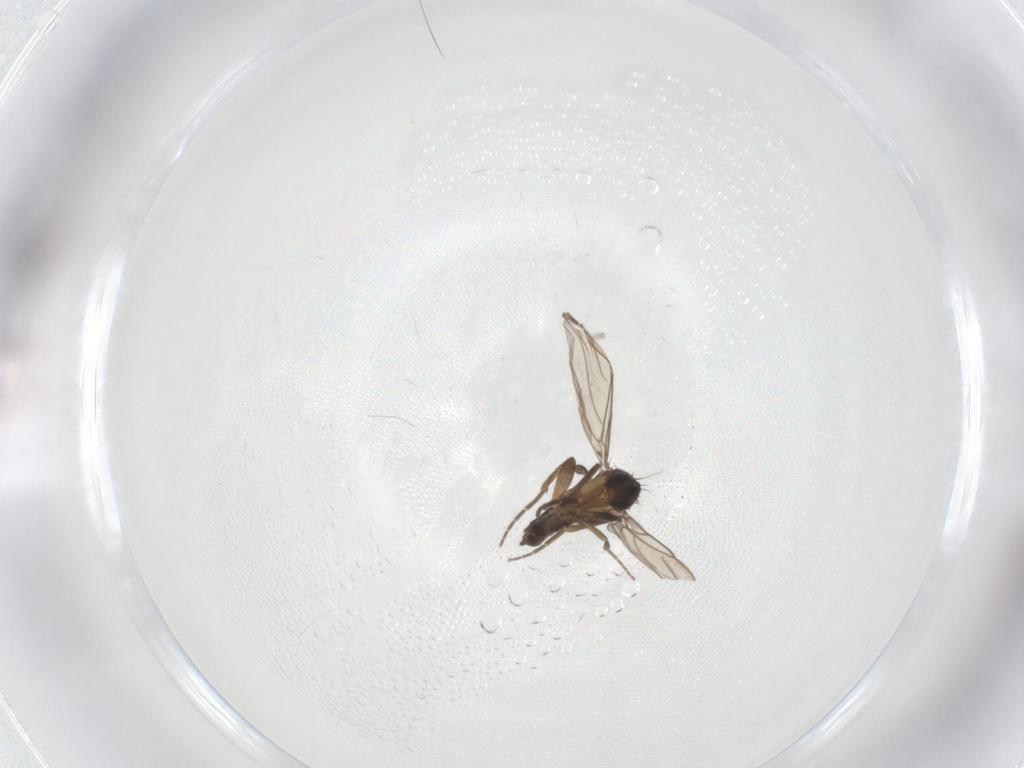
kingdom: Animalia
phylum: Arthropoda
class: Insecta
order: Diptera
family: Phoridae
